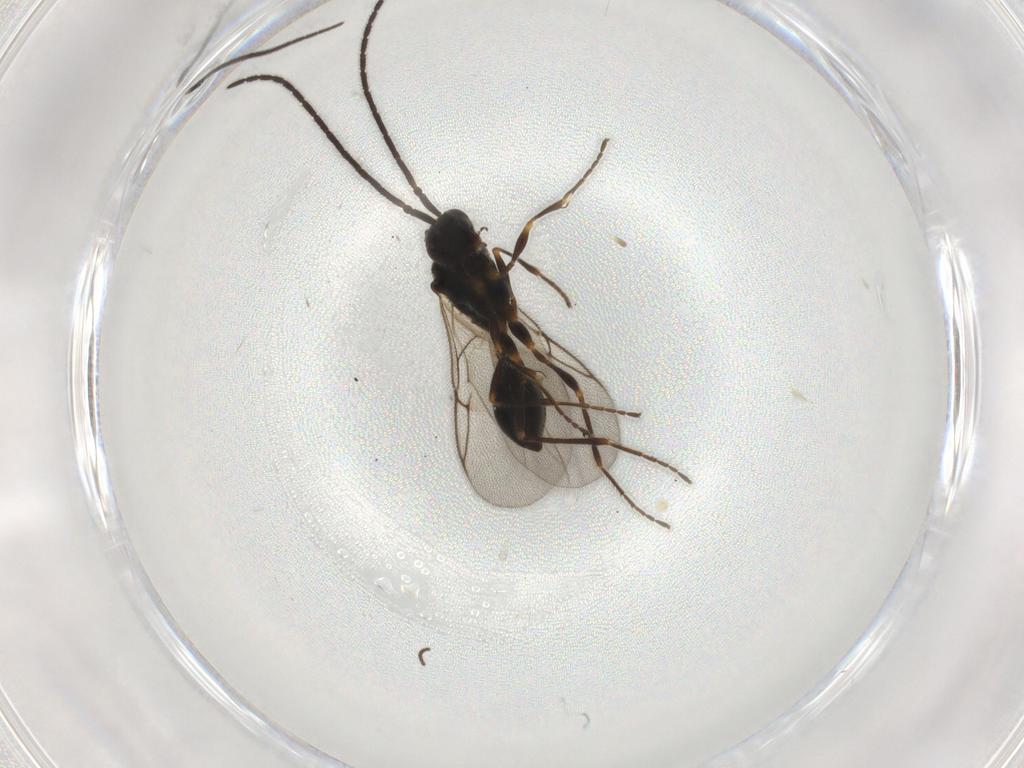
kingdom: Animalia
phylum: Arthropoda
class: Insecta
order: Hymenoptera
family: Diapriidae
